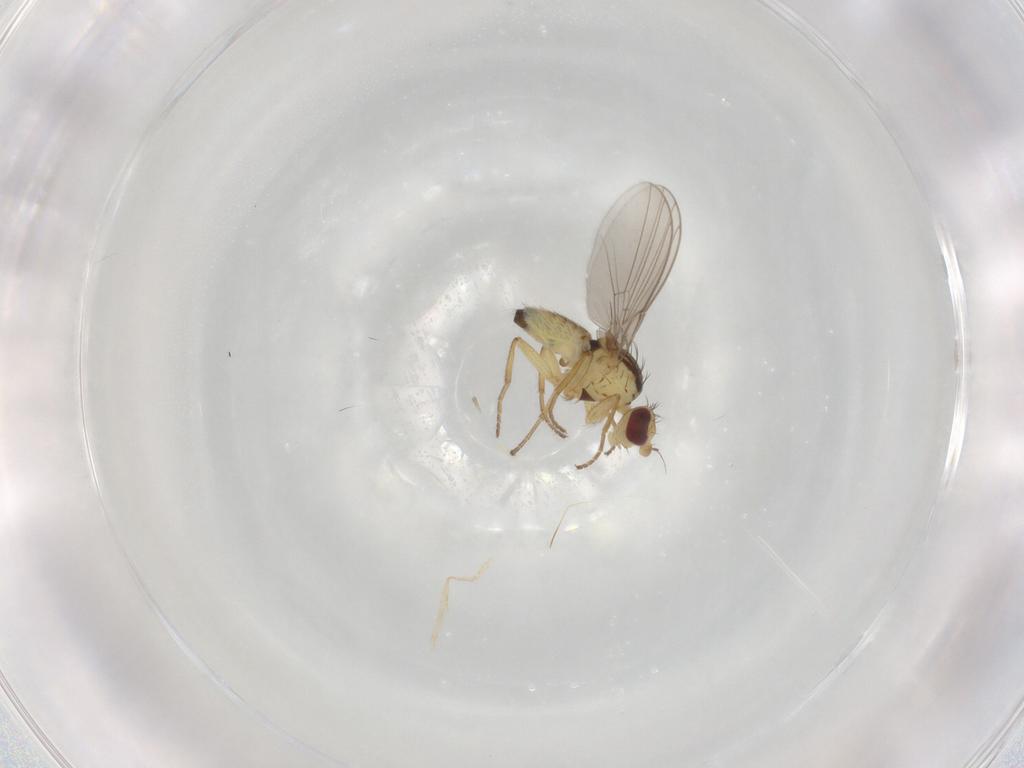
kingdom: Animalia
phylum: Arthropoda
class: Insecta
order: Diptera
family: Agromyzidae
